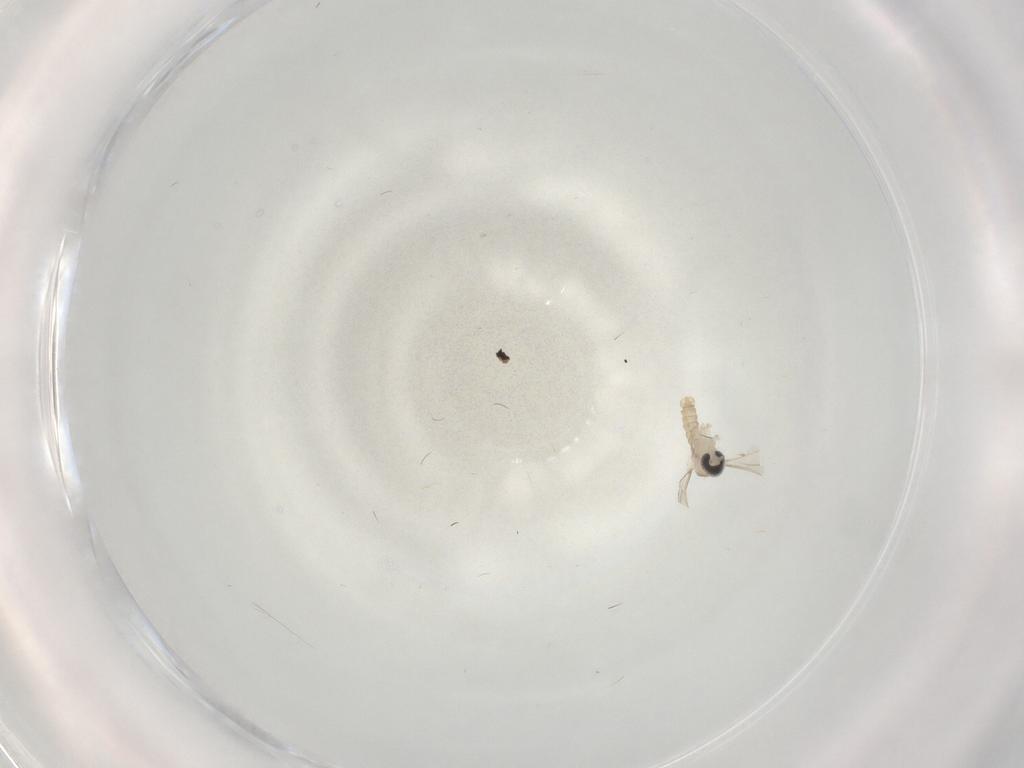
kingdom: Animalia
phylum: Arthropoda
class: Insecta
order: Diptera
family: Cecidomyiidae
